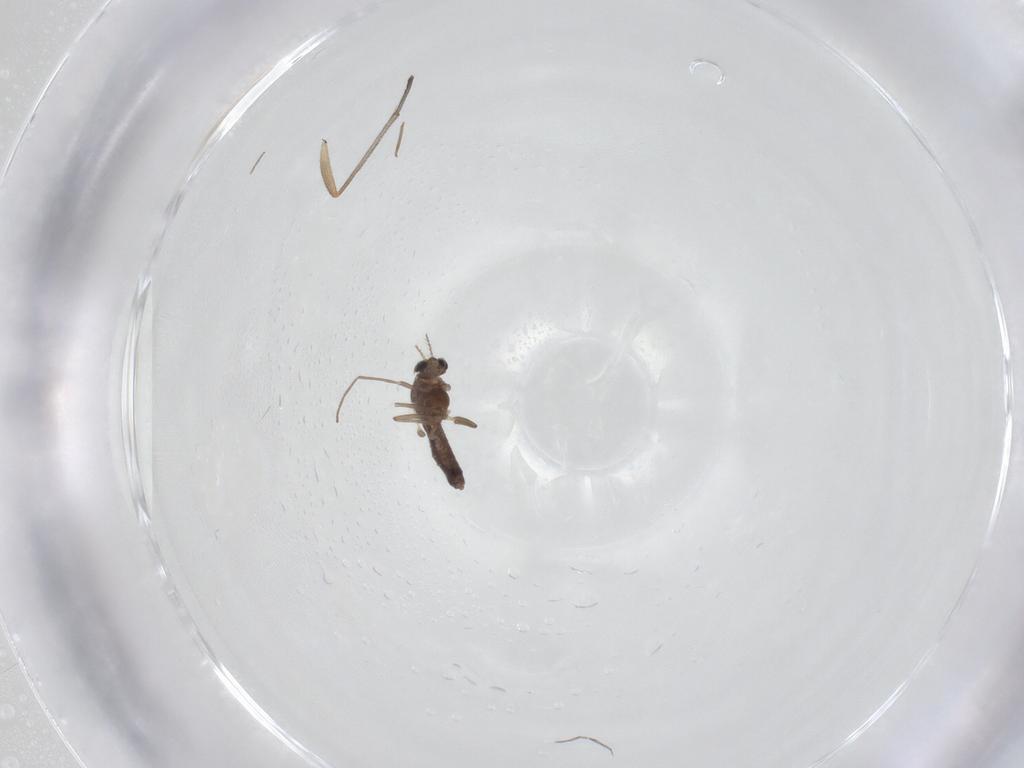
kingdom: Animalia
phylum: Arthropoda
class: Insecta
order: Diptera
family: Chironomidae
